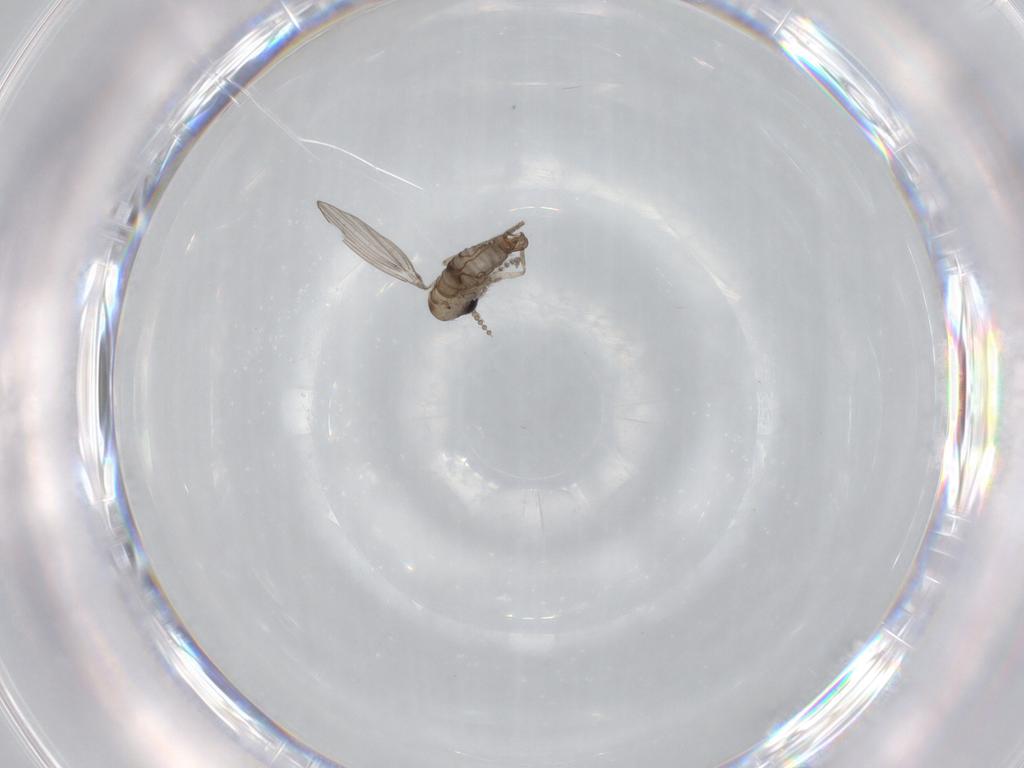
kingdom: Animalia
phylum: Arthropoda
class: Insecta
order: Diptera
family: Psychodidae
